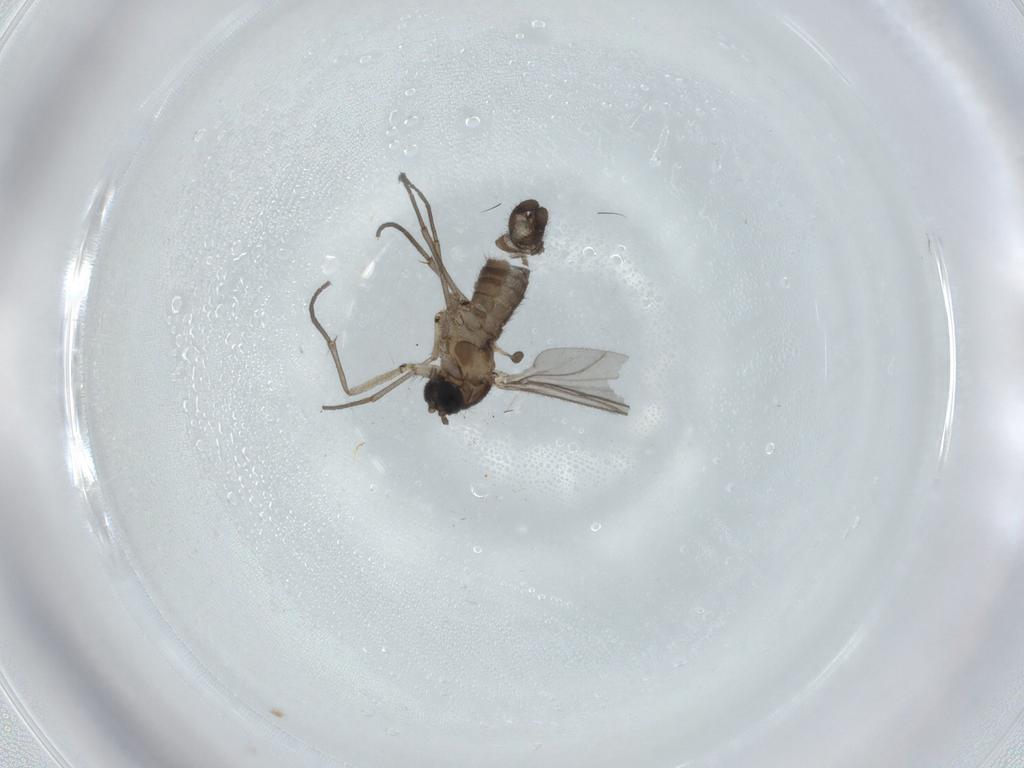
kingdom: Animalia
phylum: Arthropoda
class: Insecta
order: Diptera
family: Sciaridae
